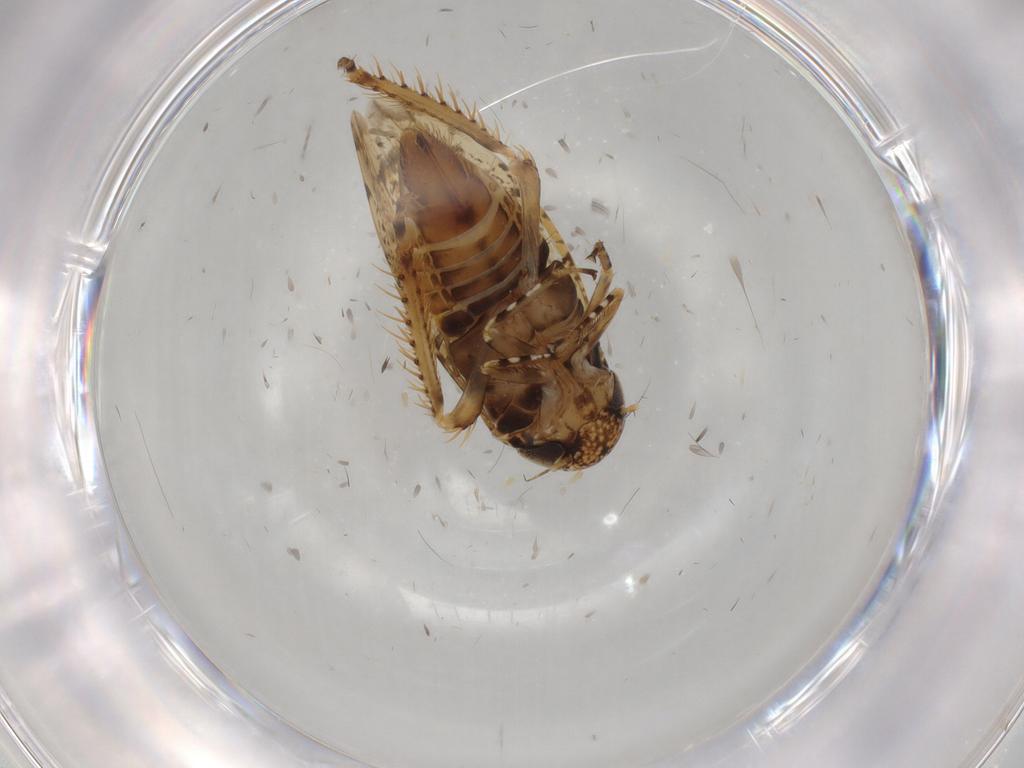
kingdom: Animalia
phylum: Arthropoda
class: Insecta
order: Hemiptera
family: Cicadellidae
